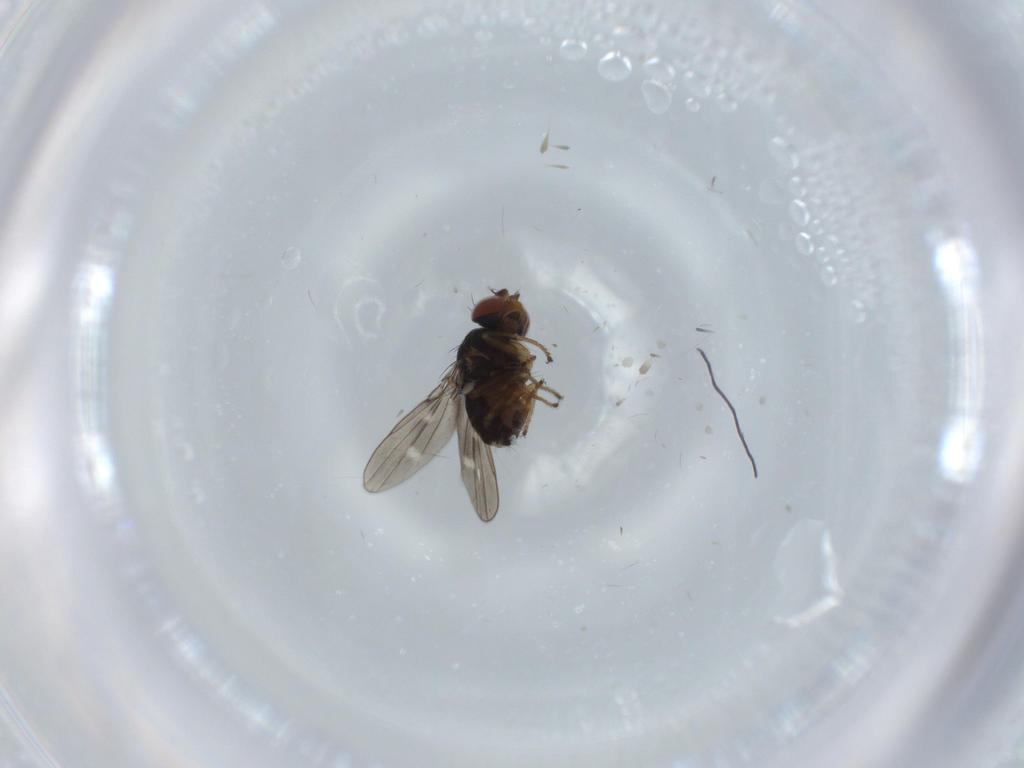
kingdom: Animalia
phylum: Arthropoda
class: Insecta
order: Diptera
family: Ephydridae
